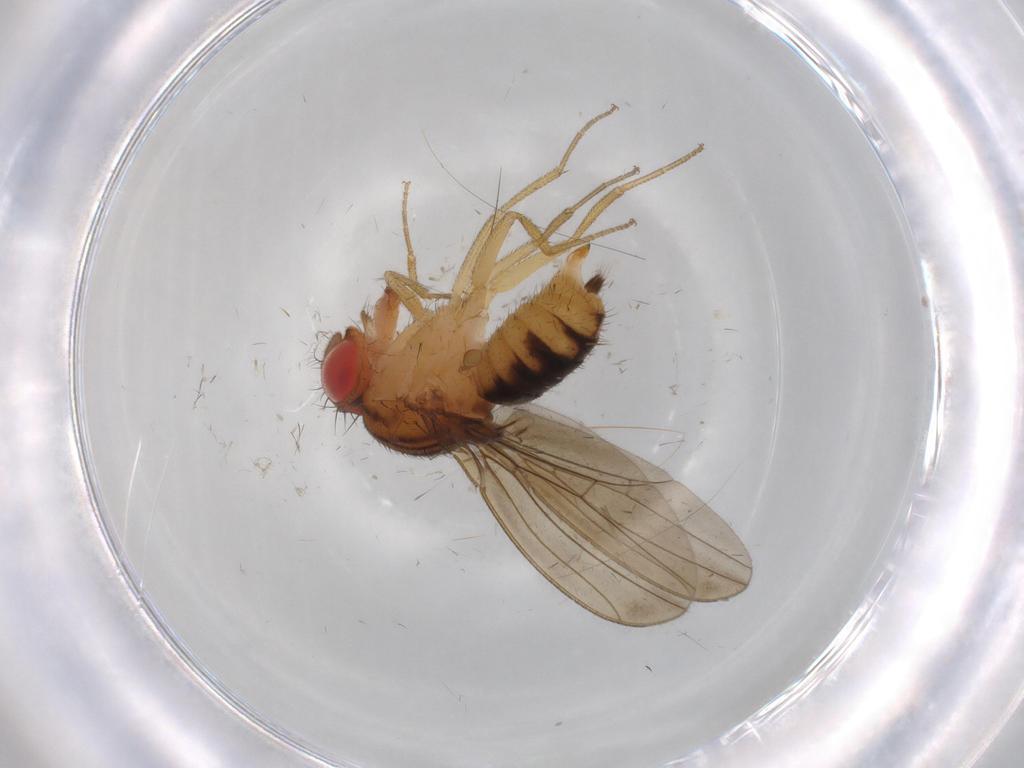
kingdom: Animalia
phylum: Arthropoda
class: Insecta
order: Diptera
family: Drosophilidae
